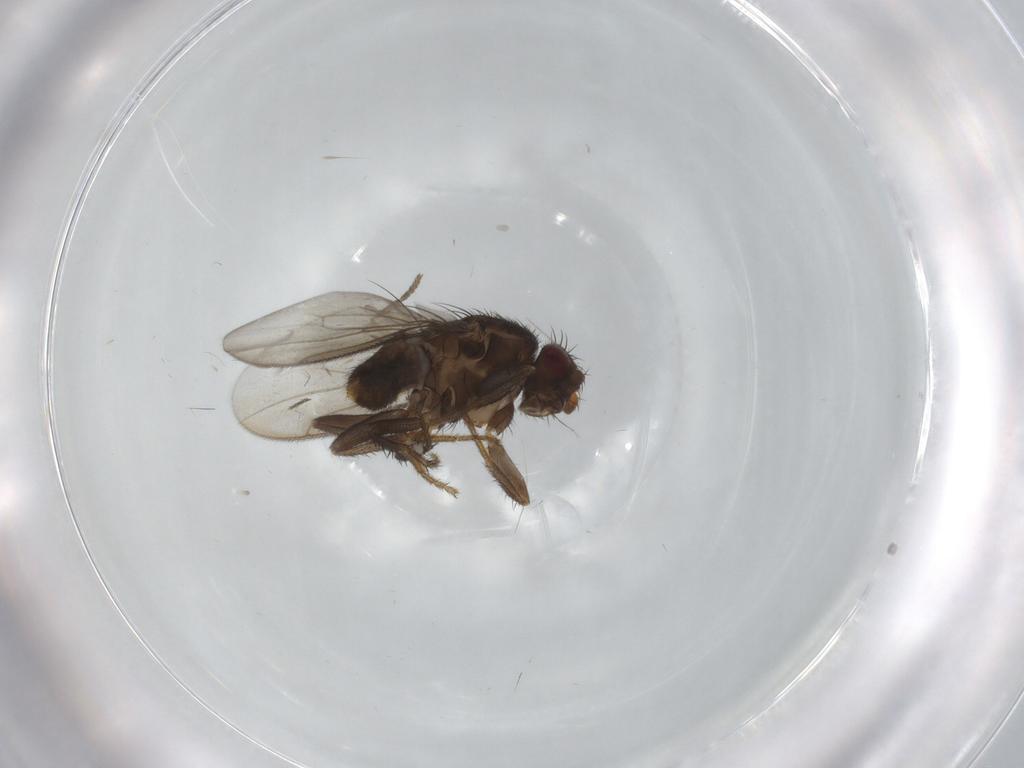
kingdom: Animalia
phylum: Arthropoda
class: Insecta
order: Diptera
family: Sphaeroceridae
